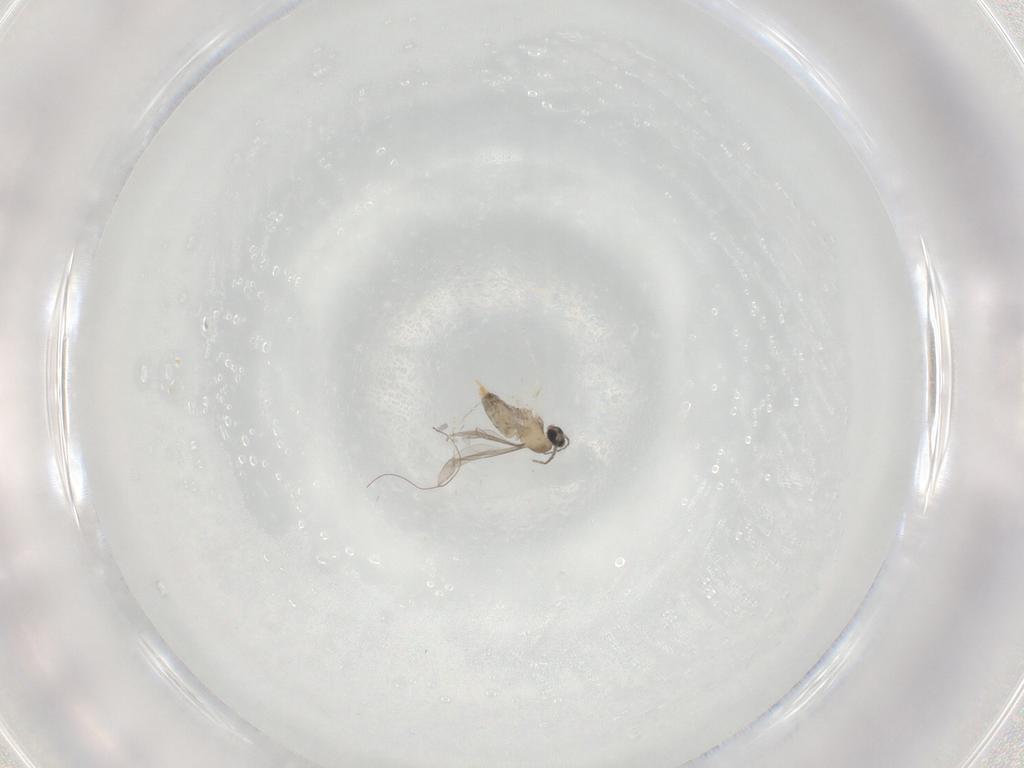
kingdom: Animalia
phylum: Arthropoda
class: Insecta
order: Diptera
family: Cecidomyiidae
